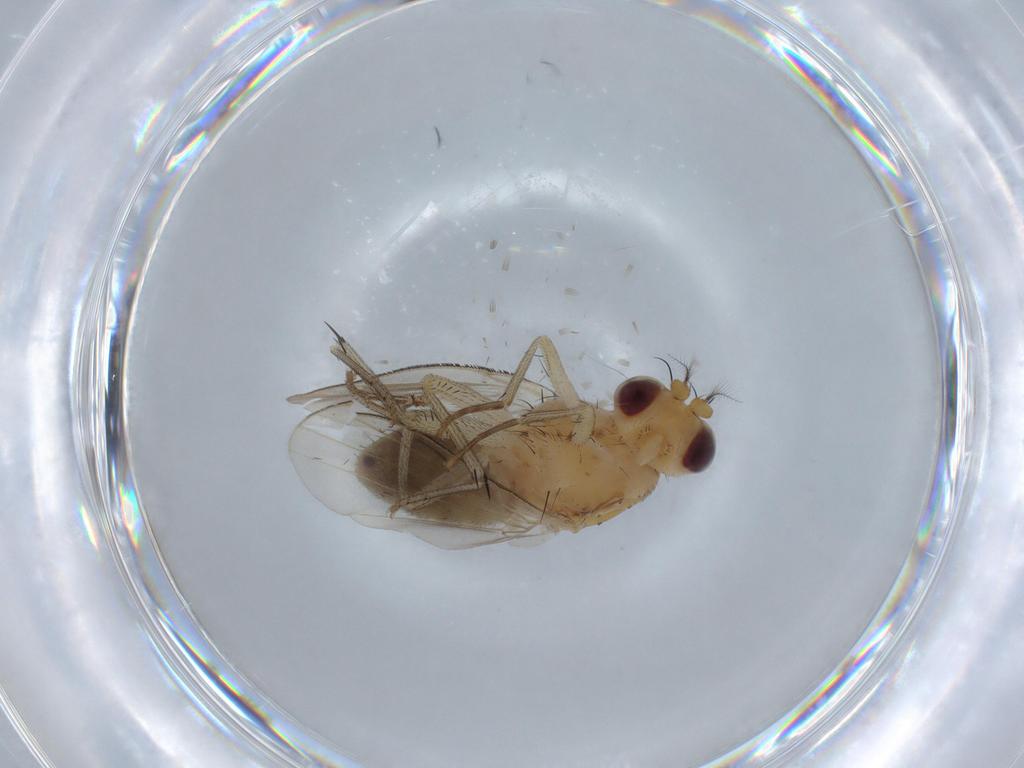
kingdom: Animalia
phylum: Arthropoda
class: Insecta
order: Diptera
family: Lauxaniidae
